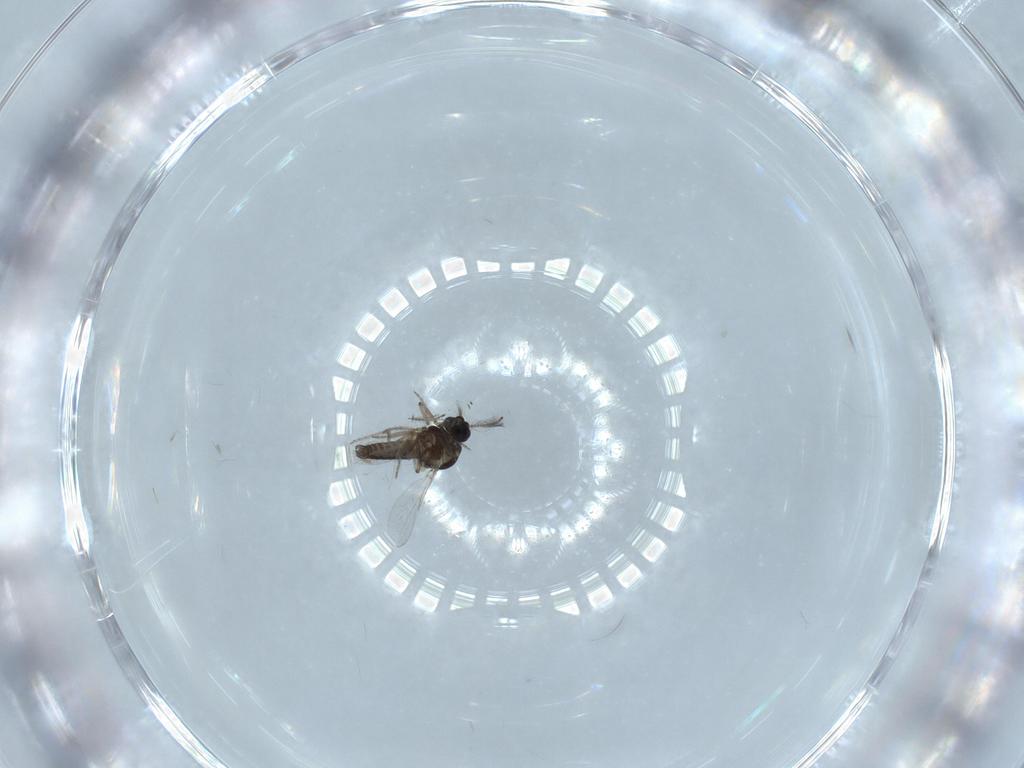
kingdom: Animalia
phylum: Arthropoda
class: Insecta
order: Diptera
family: Ceratopogonidae
